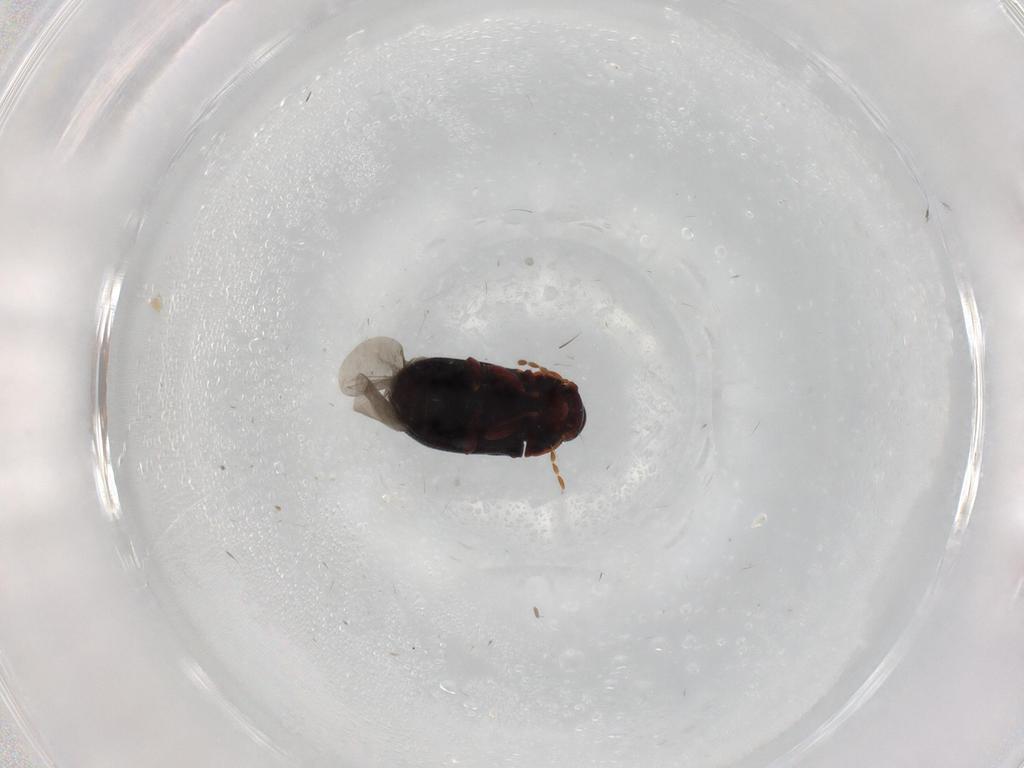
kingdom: Animalia
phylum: Arthropoda
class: Insecta
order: Coleoptera
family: Ptinidae
